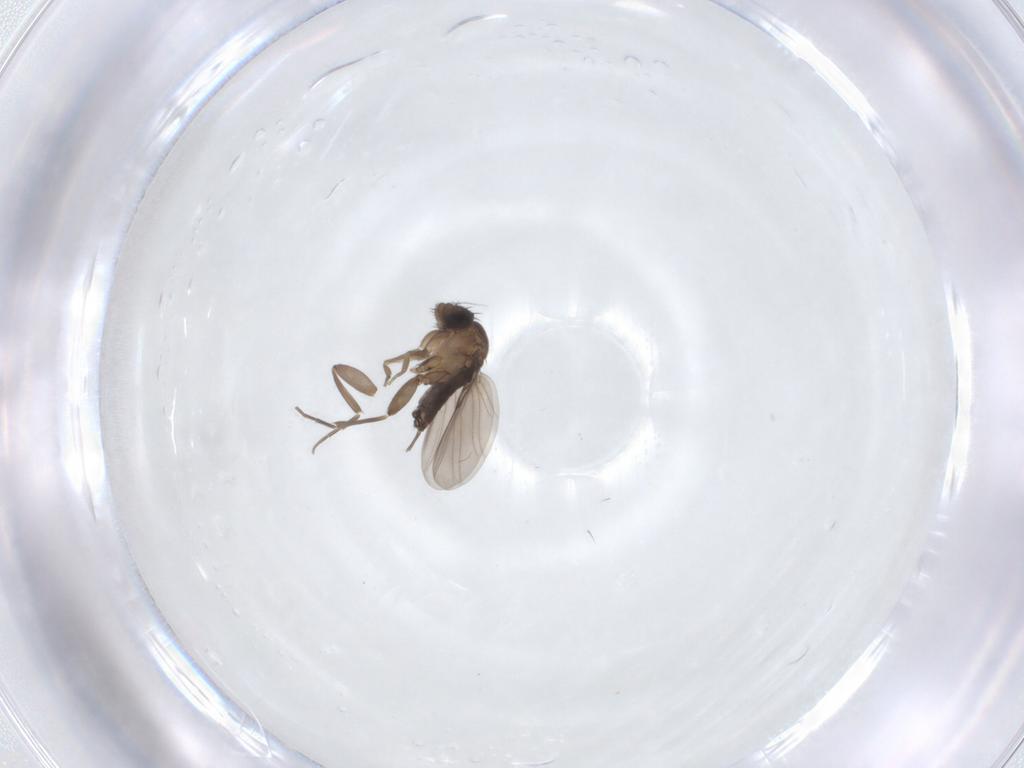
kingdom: Animalia
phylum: Arthropoda
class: Insecta
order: Diptera
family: Phoridae
